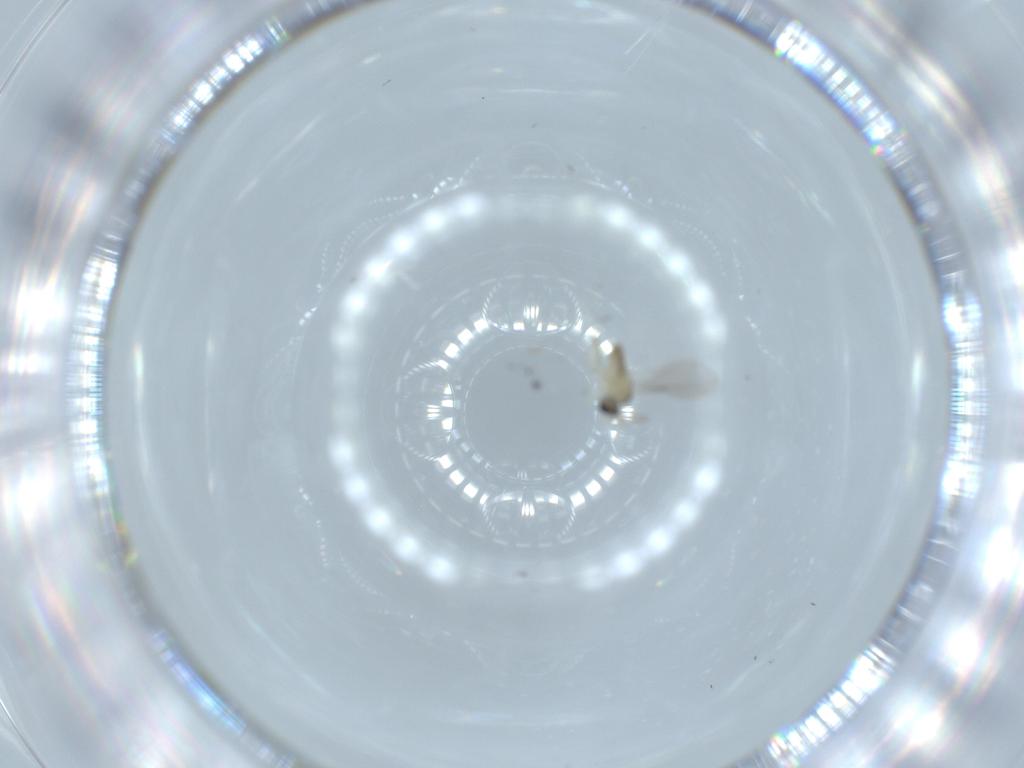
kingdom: Animalia
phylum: Arthropoda
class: Insecta
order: Diptera
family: Cecidomyiidae
